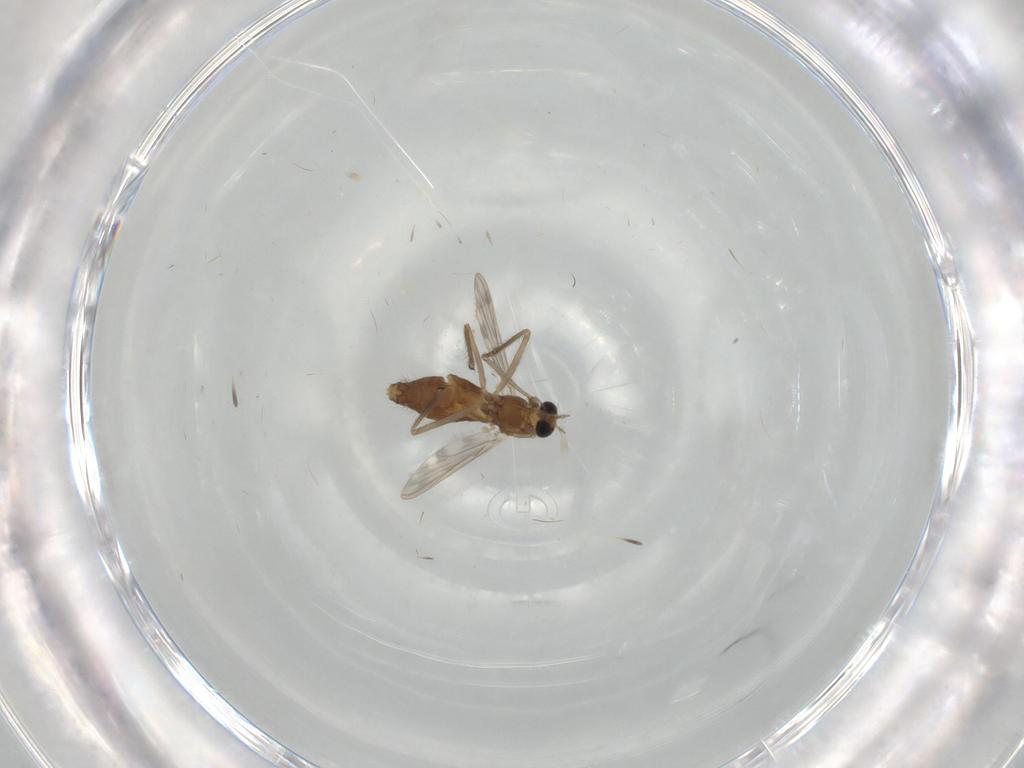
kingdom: Animalia
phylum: Arthropoda
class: Insecta
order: Diptera
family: Chironomidae
